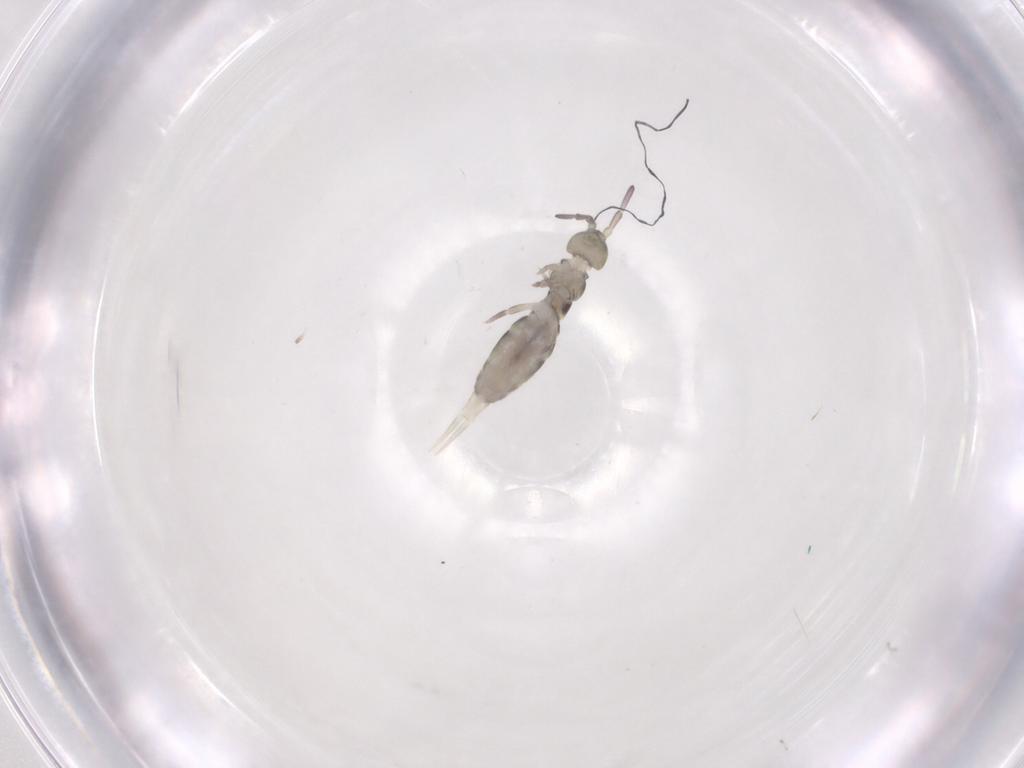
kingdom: Animalia
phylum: Arthropoda
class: Collembola
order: Entomobryomorpha
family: Isotomidae
